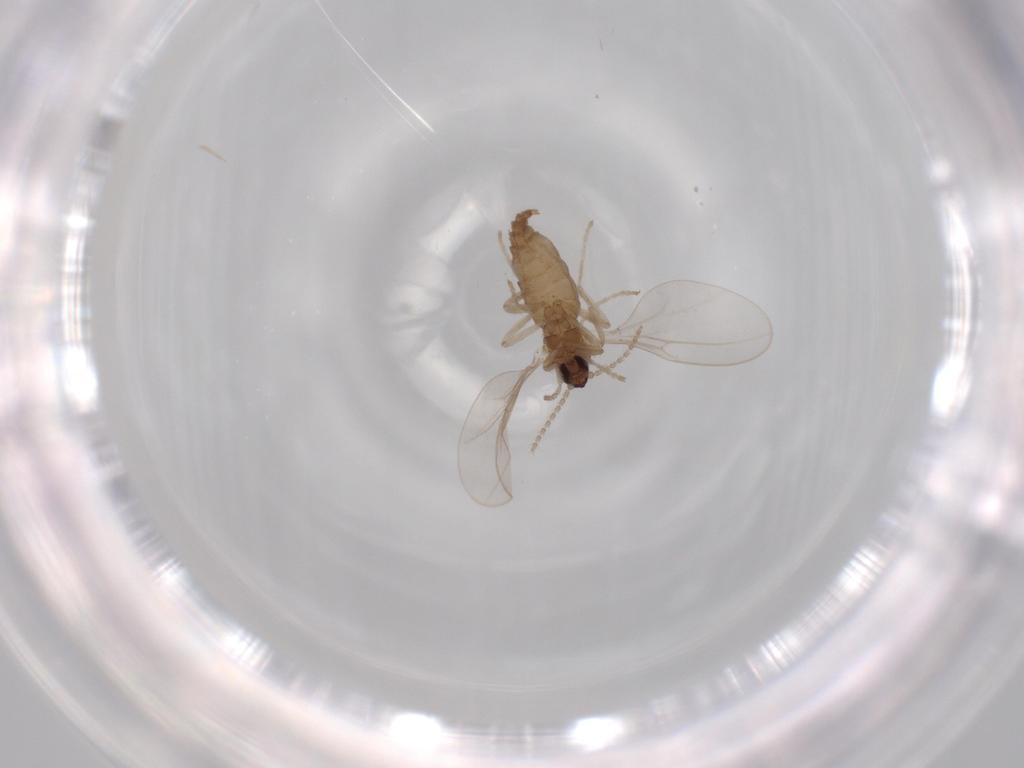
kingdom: Animalia
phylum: Arthropoda
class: Insecta
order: Diptera
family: Cecidomyiidae
